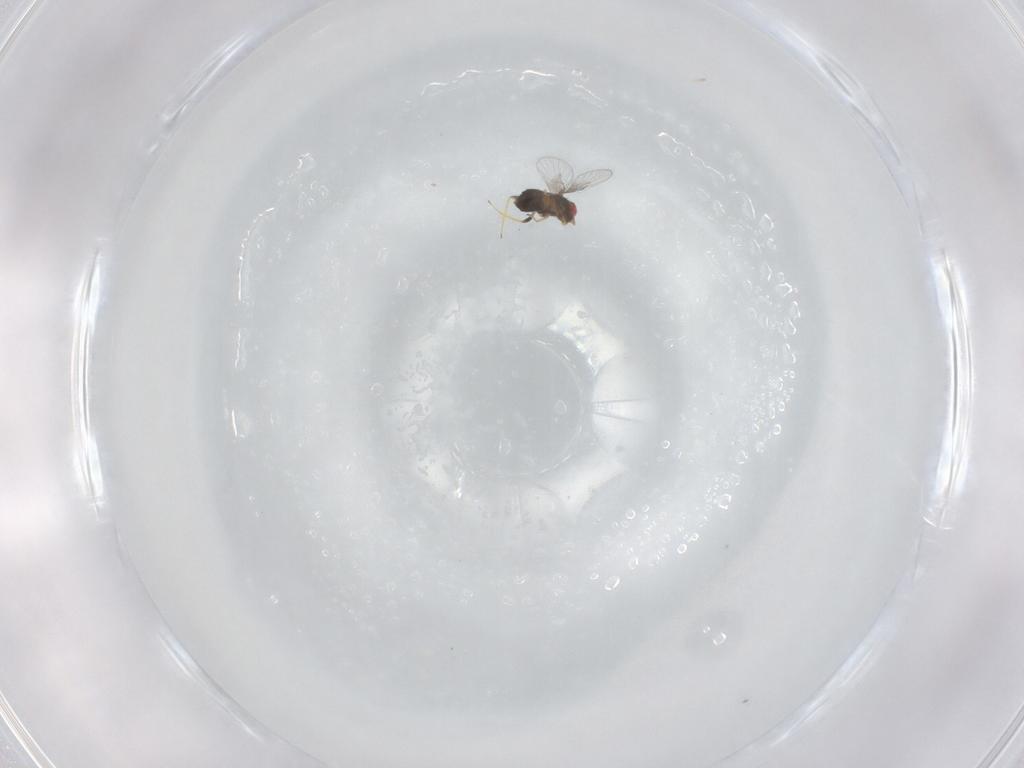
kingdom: Animalia
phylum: Arthropoda
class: Insecta
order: Hymenoptera
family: Trichogrammatidae
